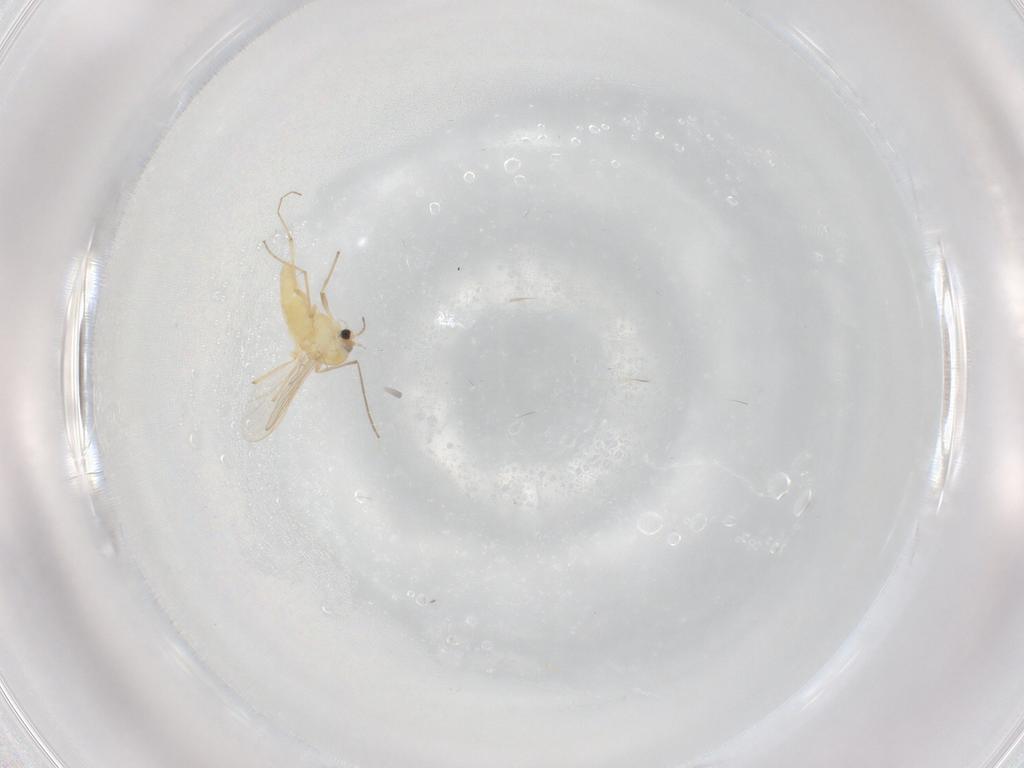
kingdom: Animalia
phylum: Arthropoda
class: Insecta
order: Diptera
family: Chironomidae
